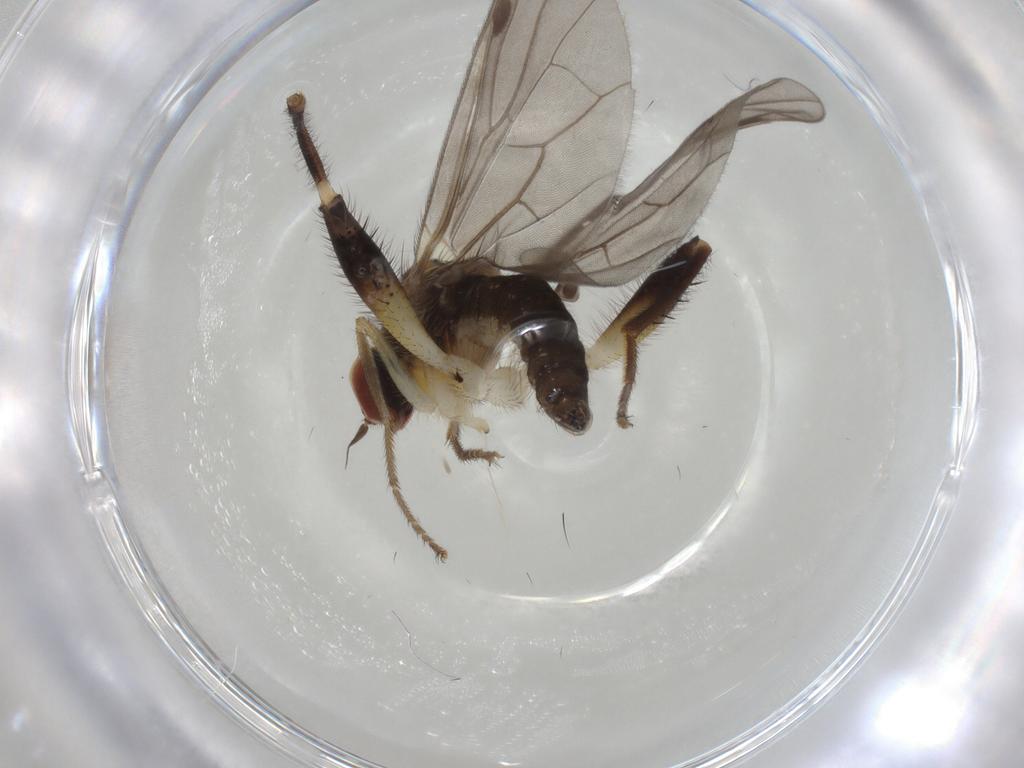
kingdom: Animalia
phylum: Arthropoda
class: Insecta
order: Diptera
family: Hybotidae
